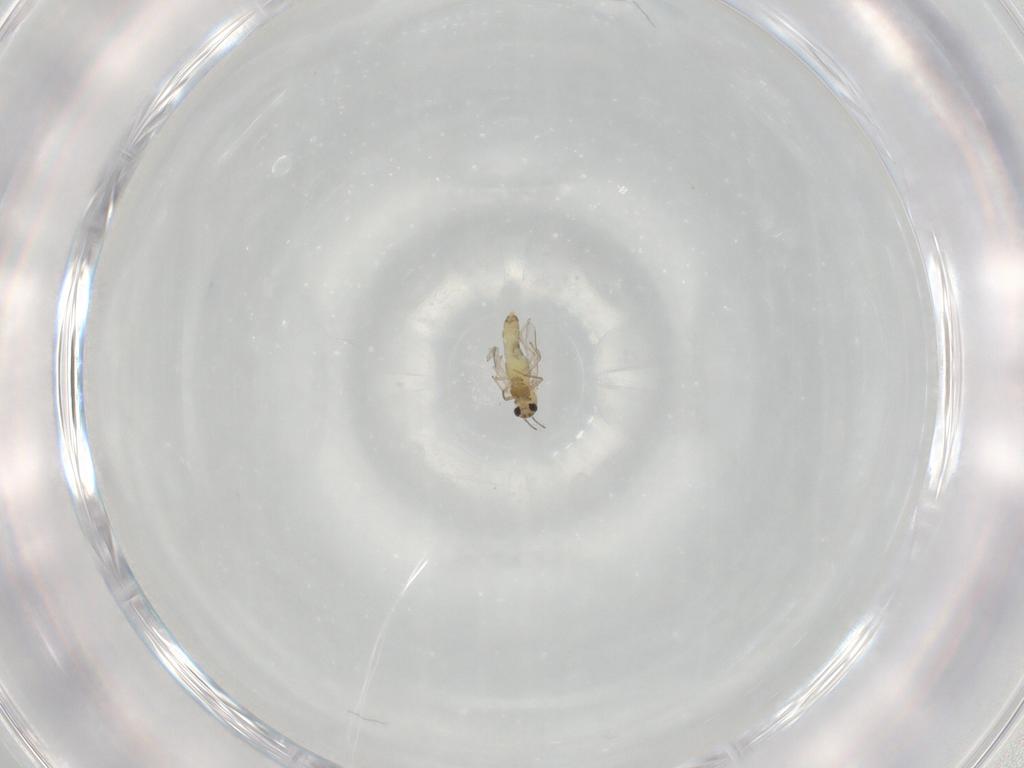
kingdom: Animalia
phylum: Arthropoda
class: Insecta
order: Diptera
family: Chironomidae
